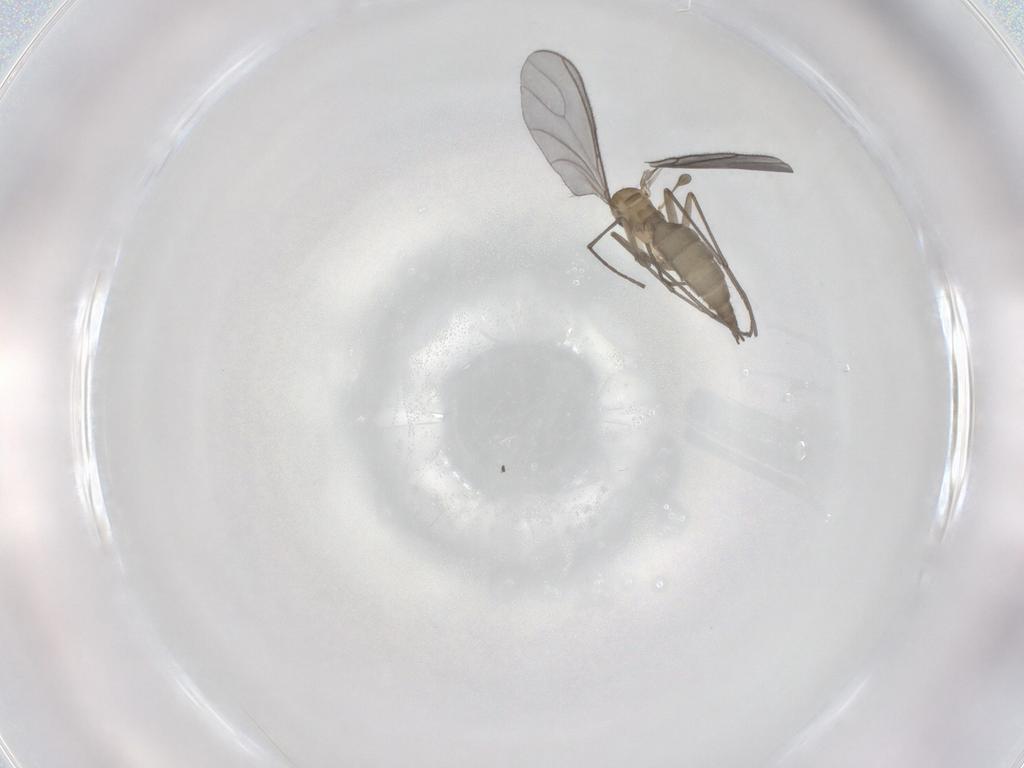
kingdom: Animalia
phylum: Arthropoda
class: Insecta
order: Diptera
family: Sciaridae
